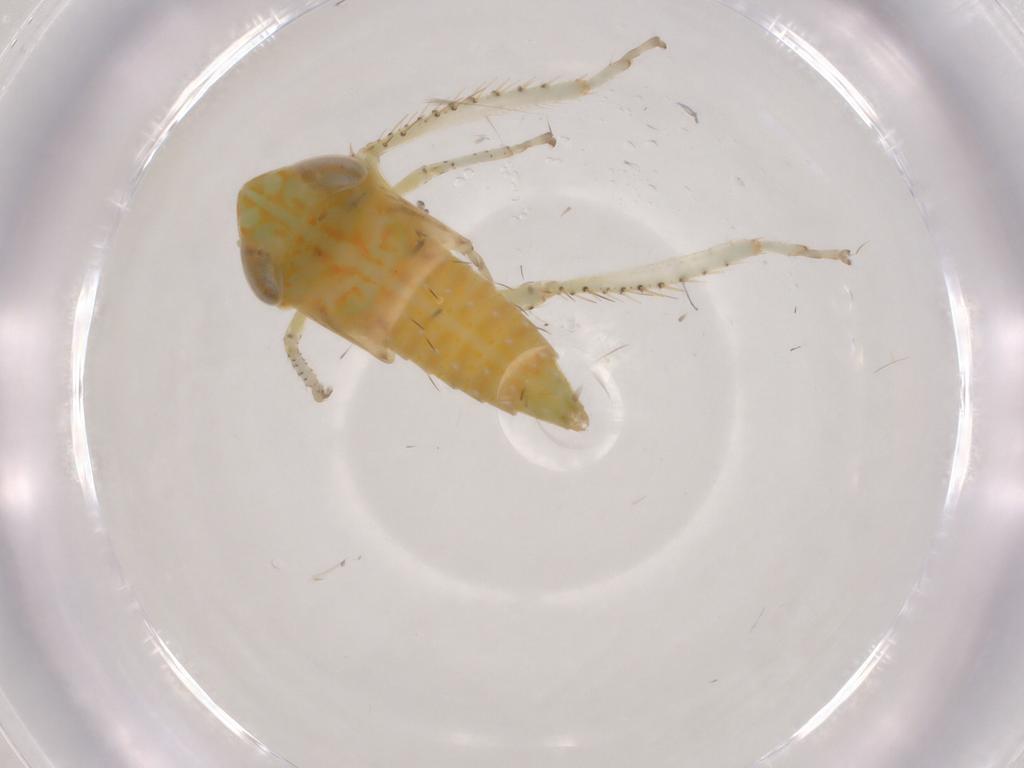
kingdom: Animalia
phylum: Arthropoda
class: Insecta
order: Hemiptera
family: Cicadellidae
